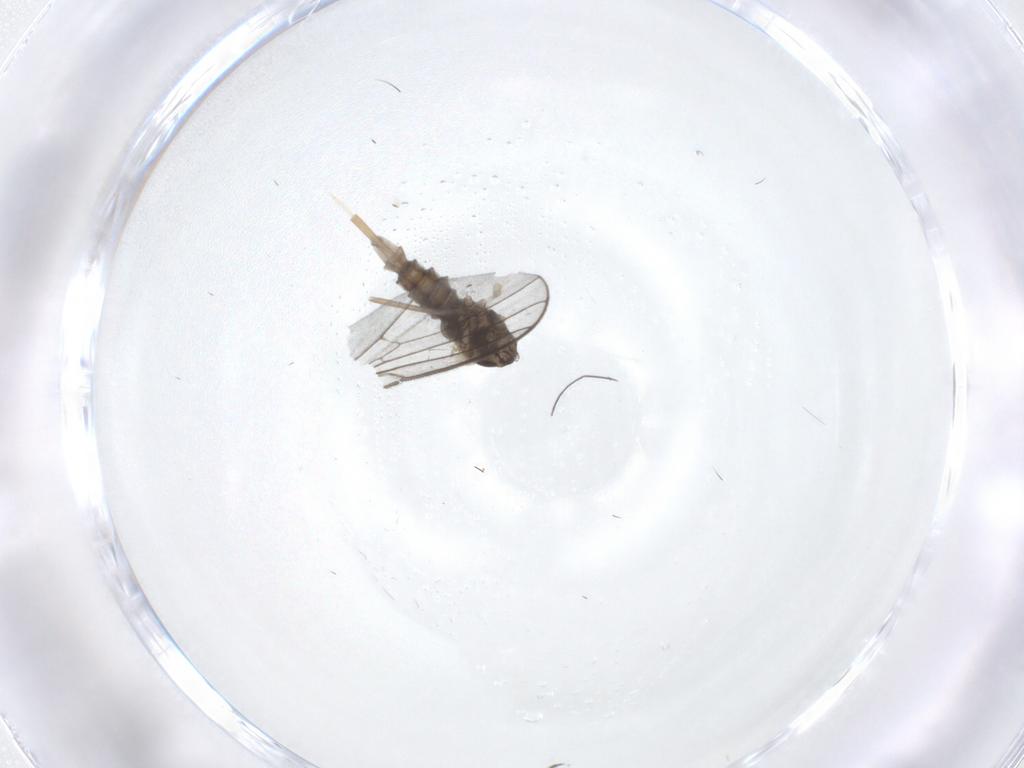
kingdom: Animalia
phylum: Arthropoda
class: Insecta
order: Diptera
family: Cecidomyiidae
